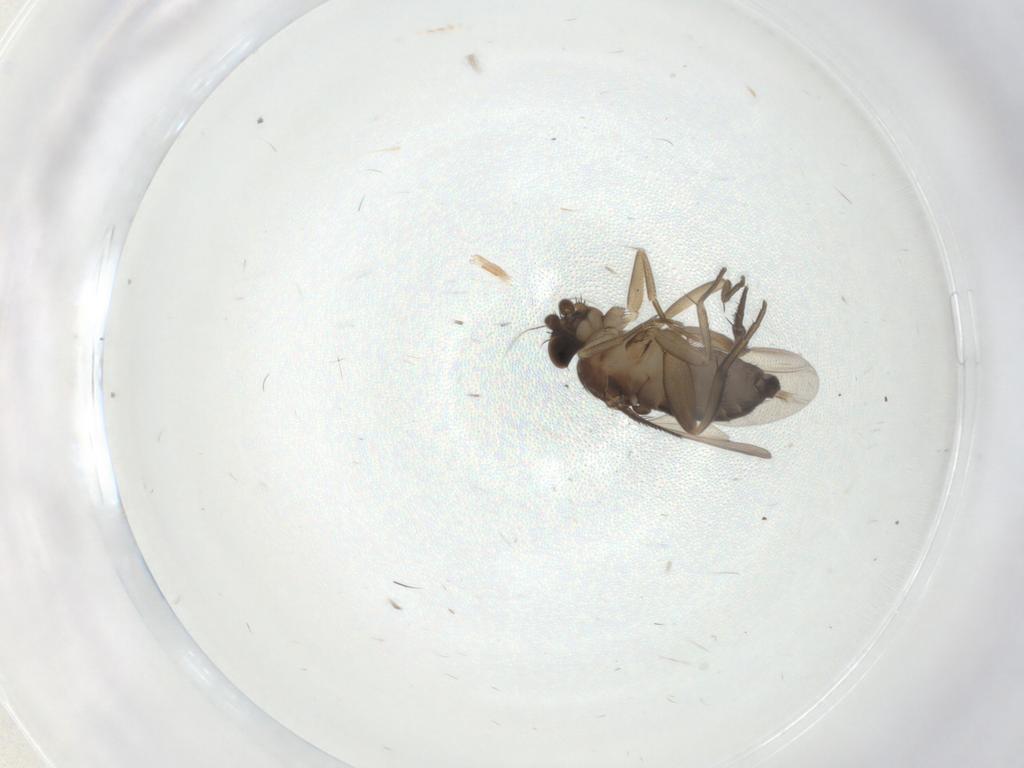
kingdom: Animalia
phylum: Arthropoda
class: Insecta
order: Diptera
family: Phoridae
